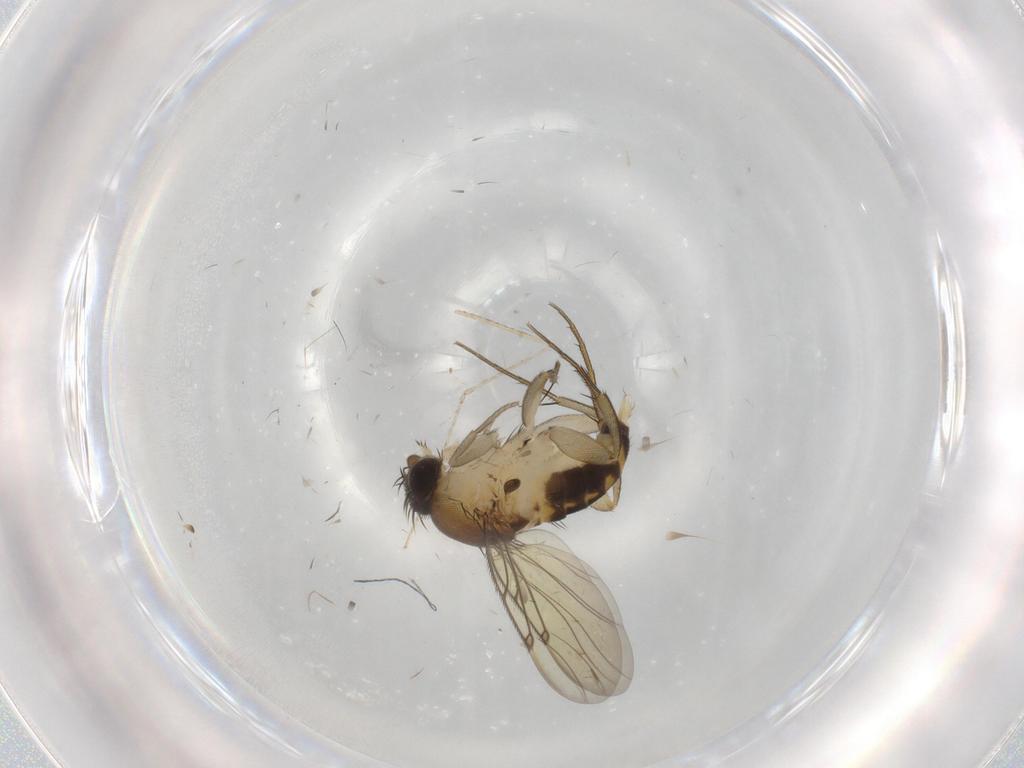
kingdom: Animalia
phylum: Arthropoda
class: Insecta
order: Diptera
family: Cecidomyiidae
